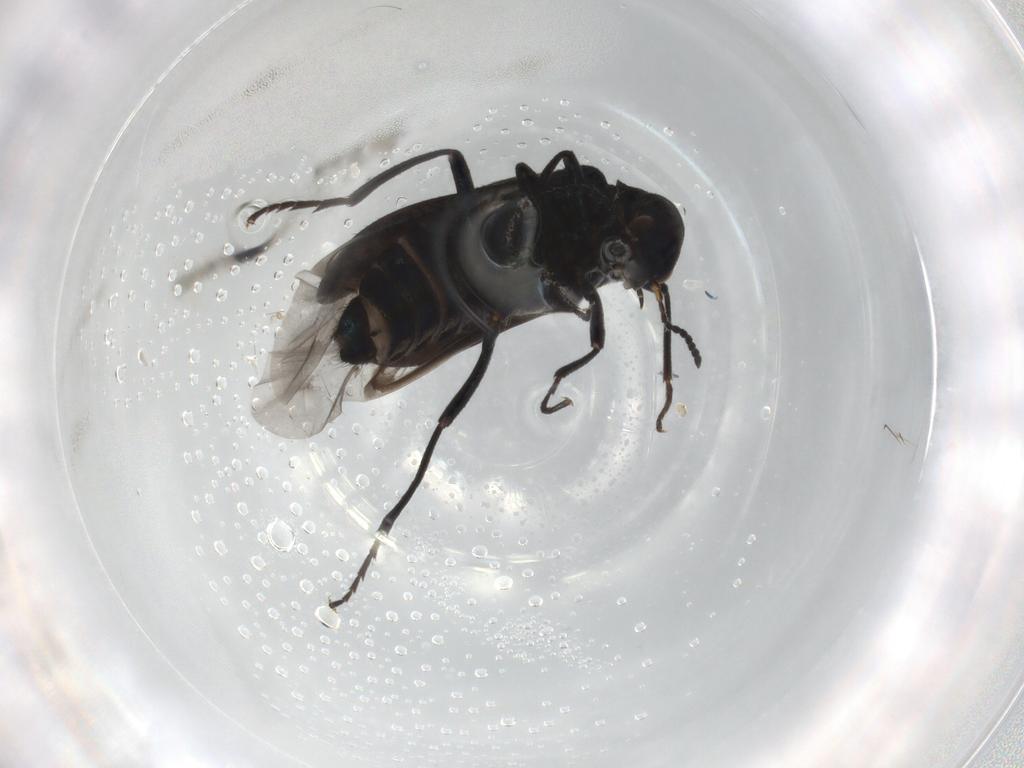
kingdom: Animalia
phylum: Arthropoda
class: Insecta
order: Coleoptera
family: Melyridae
